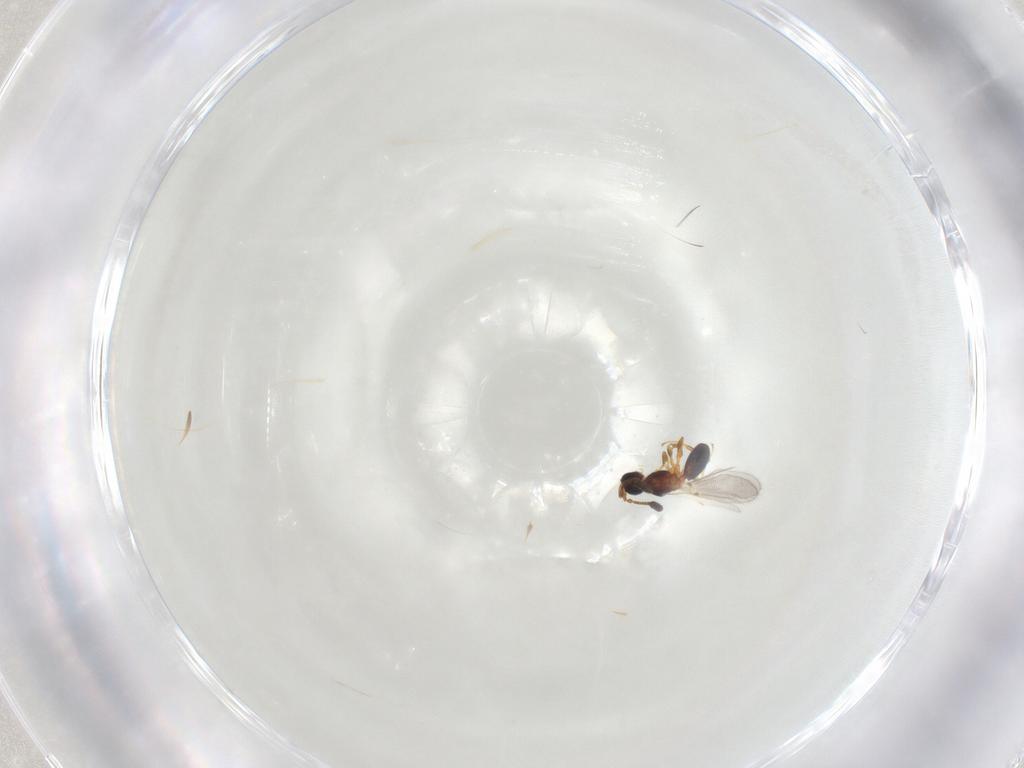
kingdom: Animalia
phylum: Arthropoda
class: Insecta
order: Hymenoptera
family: Diapriidae
